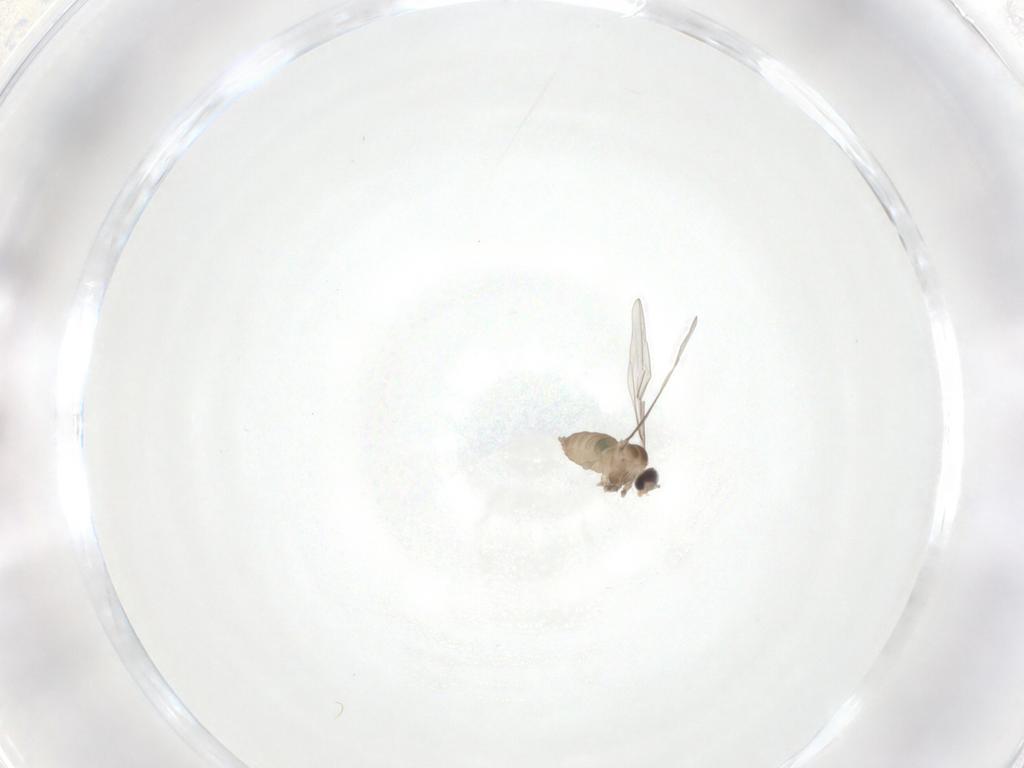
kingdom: Animalia
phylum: Arthropoda
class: Insecta
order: Diptera
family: Cecidomyiidae
